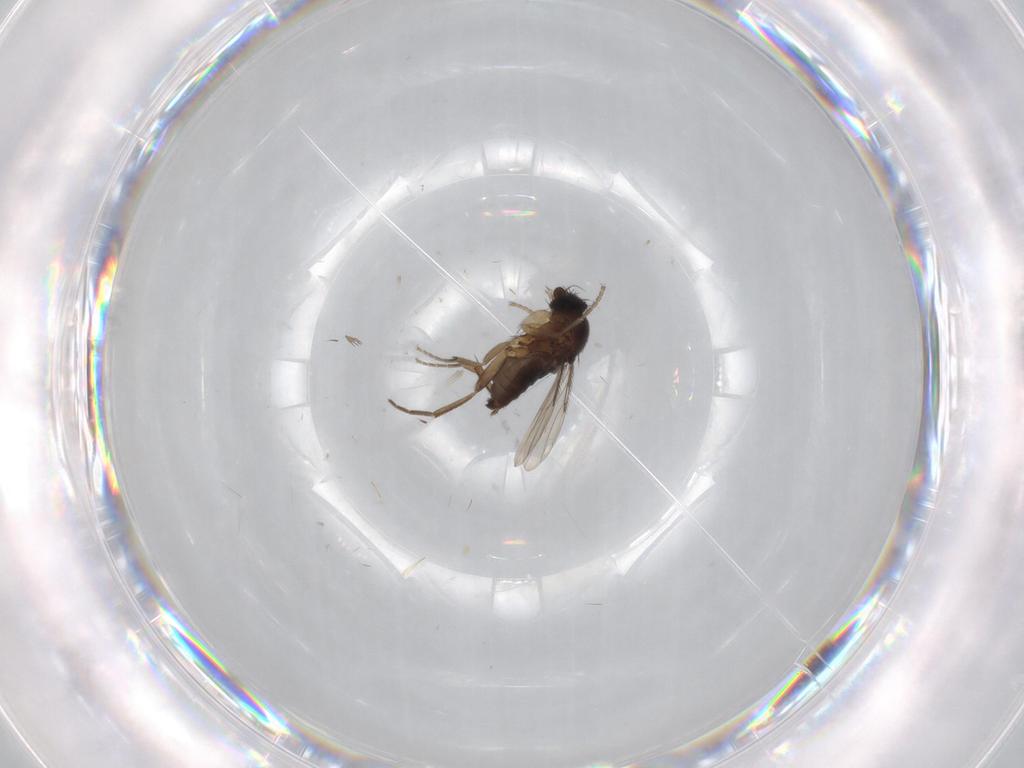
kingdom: Animalia
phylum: Arthropoda
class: Insecta
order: Diptera
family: Phoridae
